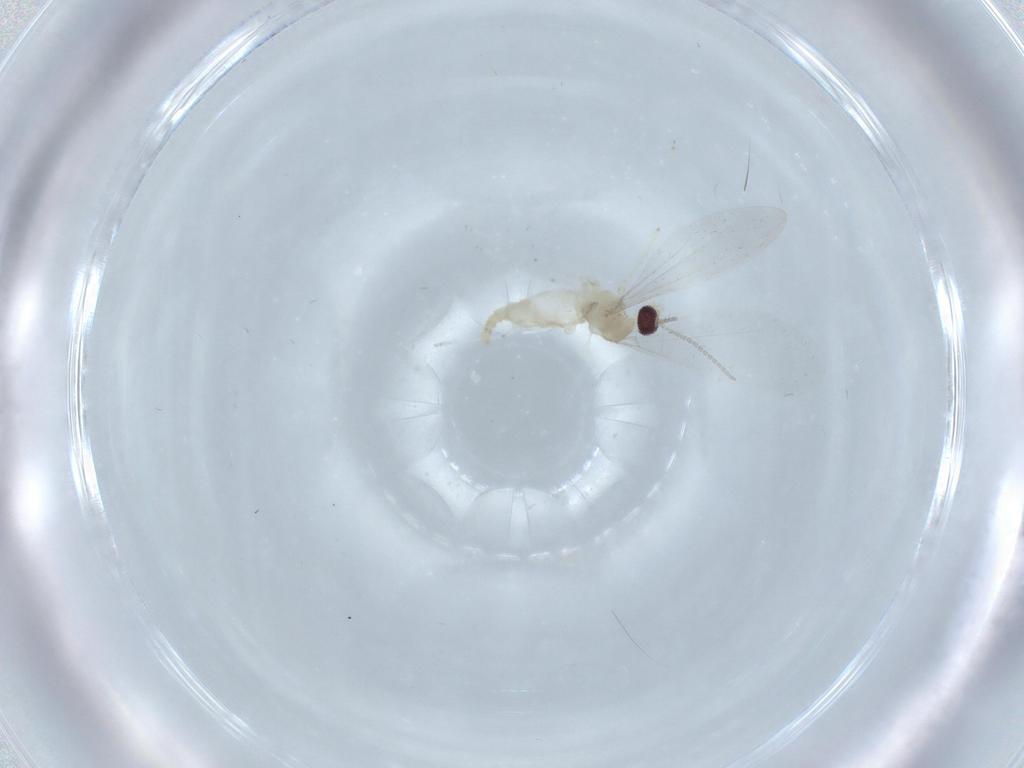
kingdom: Animalia
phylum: Arthropoda
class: Insecta
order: Diptera
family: Cecidomyiidae
